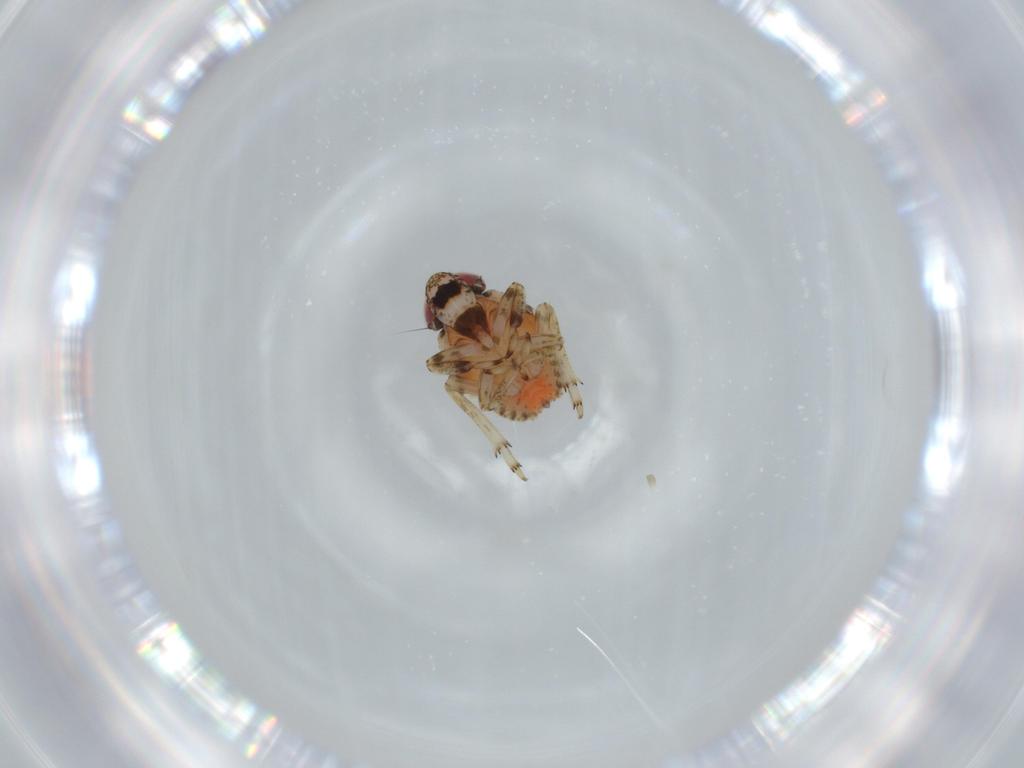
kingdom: Animalia
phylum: Arthropoda
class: Insecta
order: Hemiptera
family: Issidae
